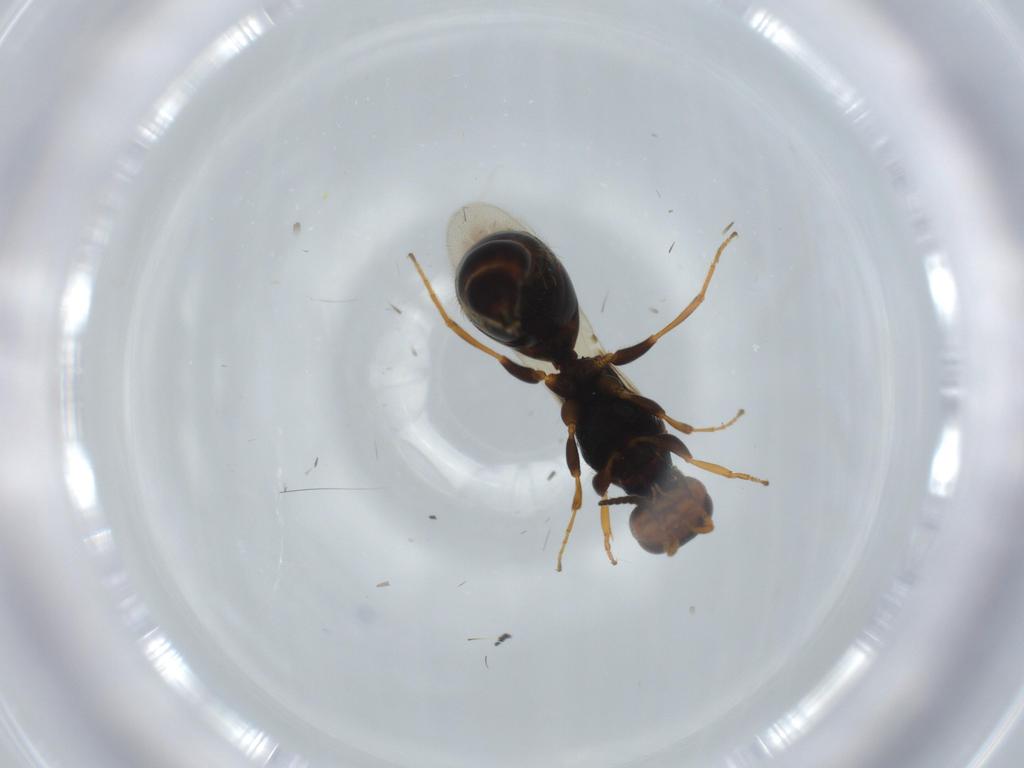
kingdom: Animalia
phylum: Arthropoda
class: Insecta
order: Hymenoptera
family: Bethylidae
